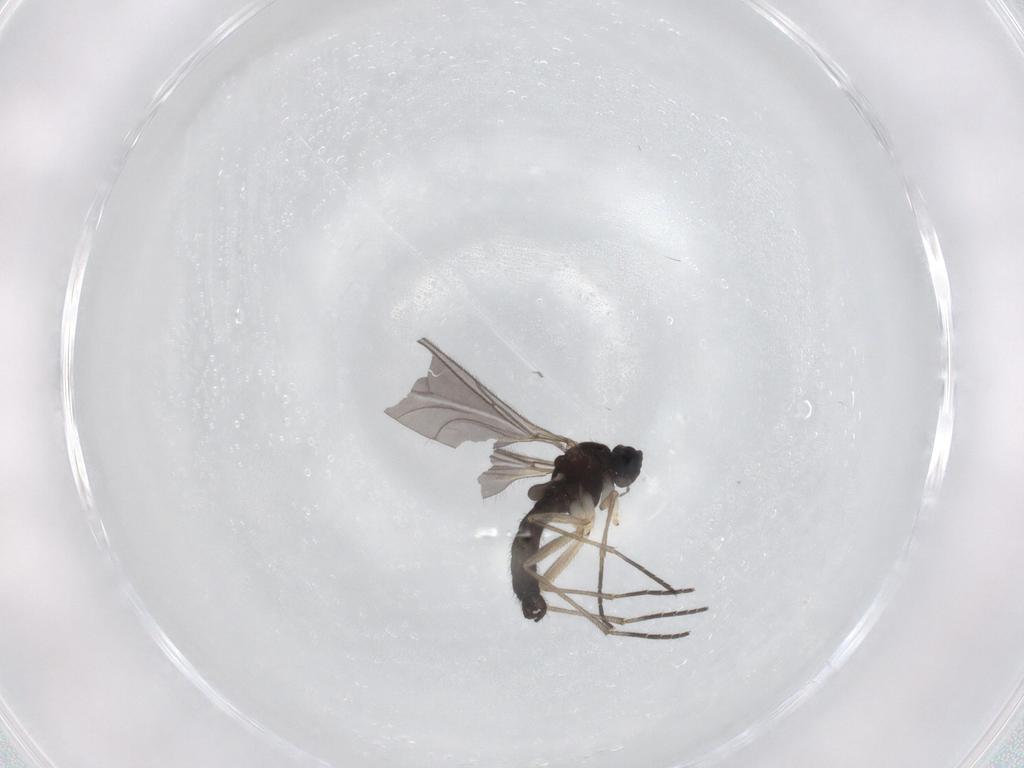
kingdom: Animalia
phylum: Arthropoda
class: Insecta
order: Diptera
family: Sciaridae
